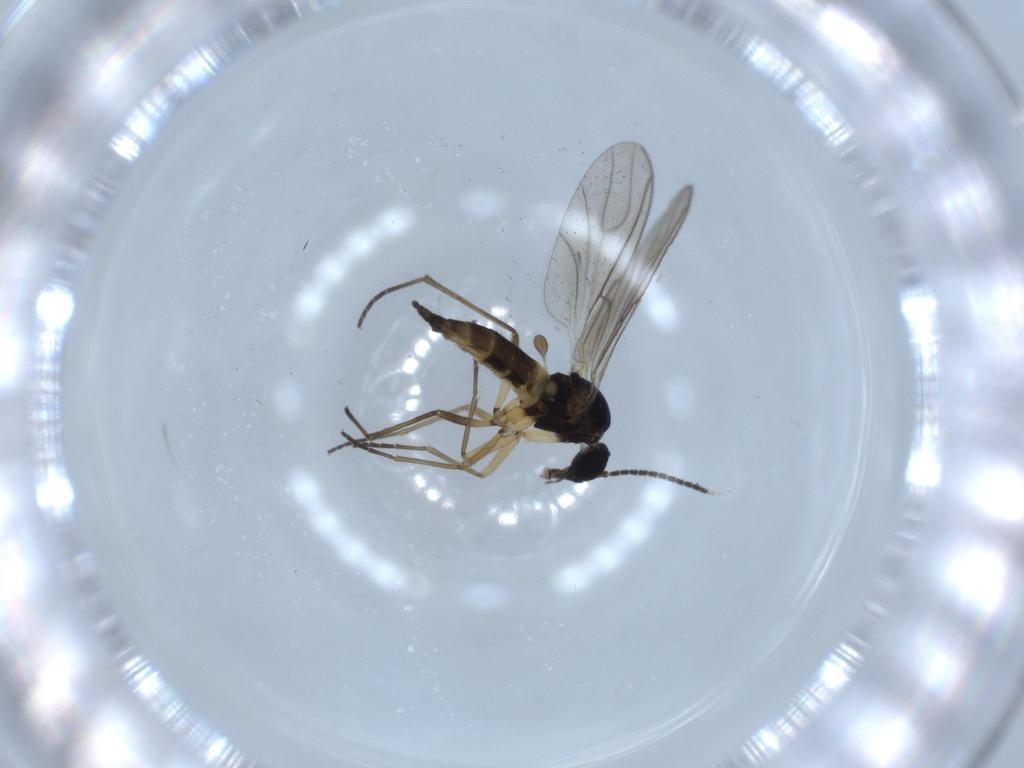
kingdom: Animalia
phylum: Arthropoda
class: Insecta
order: Diptera
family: Sciaridae
